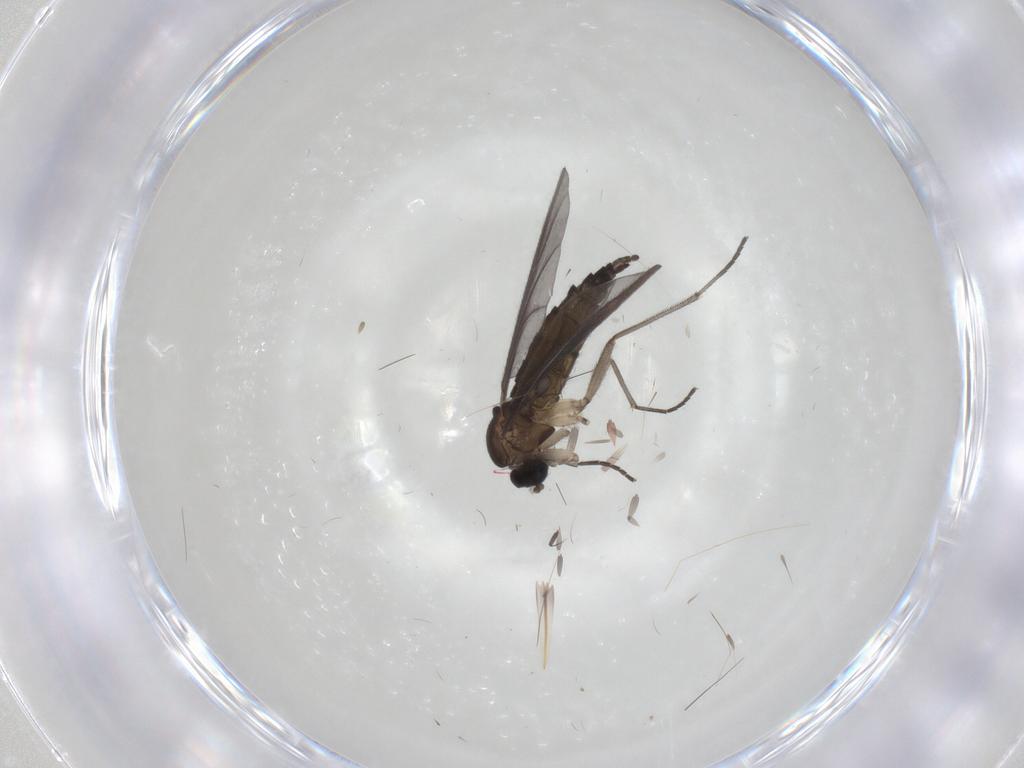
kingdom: Animalia
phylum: Arthropoda
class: Insecta
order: Diptera
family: Sciaridae
